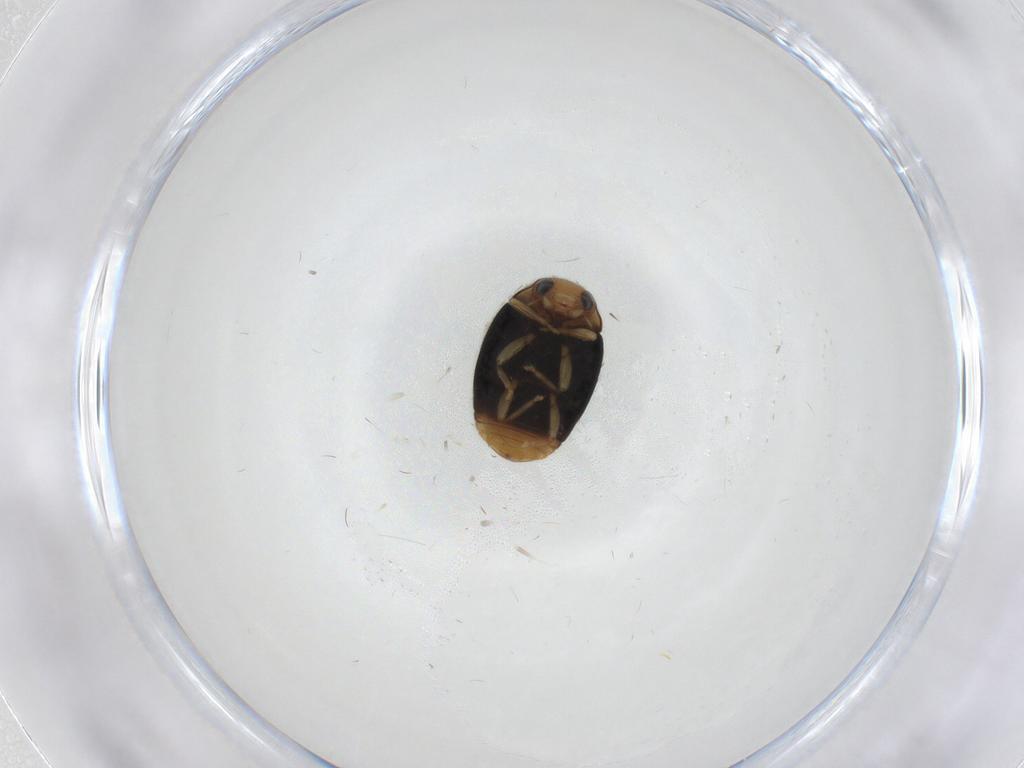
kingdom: Animalia
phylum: Arthropoda
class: Insecta
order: Coleoptera
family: Coccinellidae
